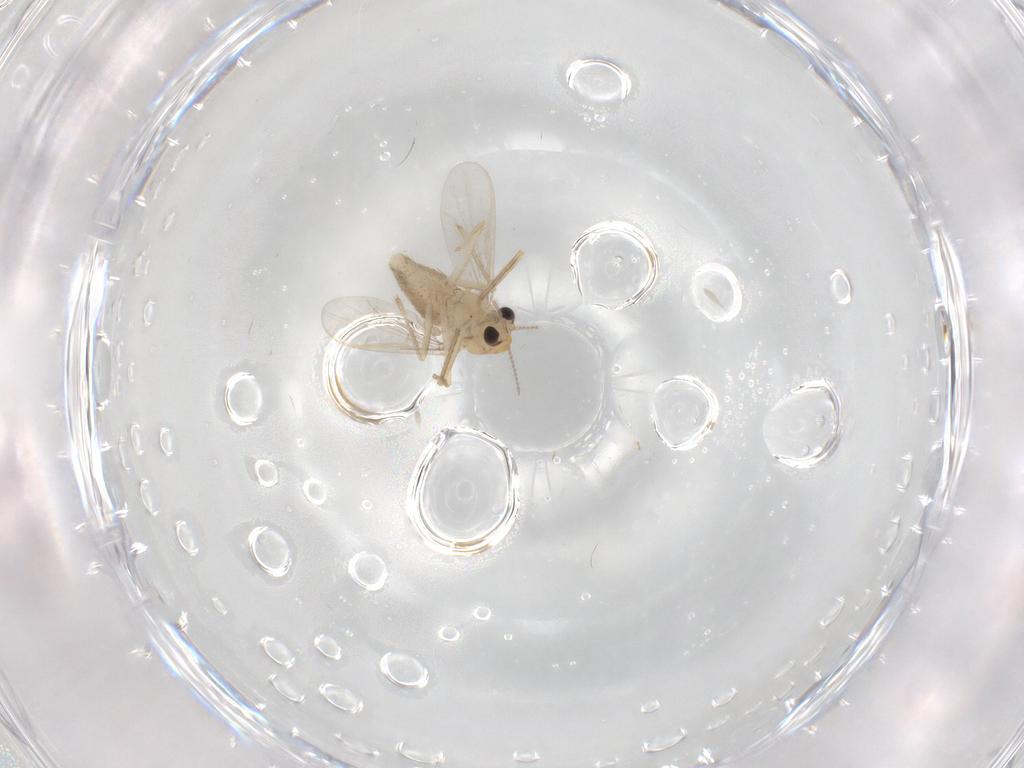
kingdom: Animalia
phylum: Arthropoda
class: Insecta
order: Diptera
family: Chironomidae
